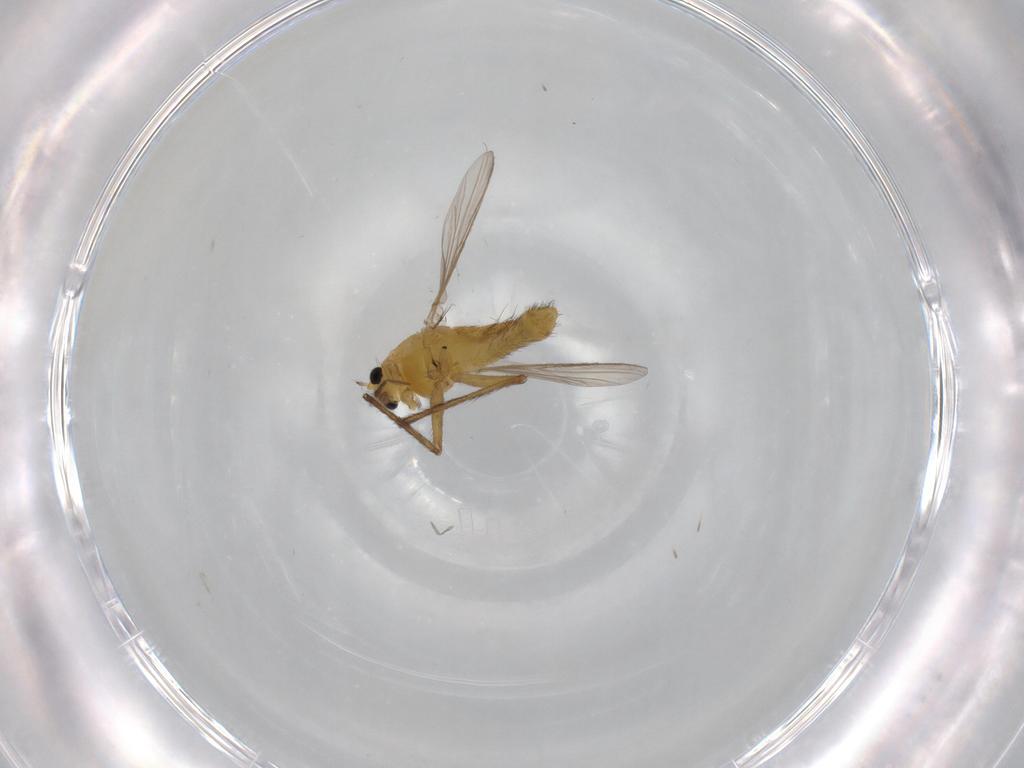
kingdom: Animalia
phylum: Arthropoda
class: Insecta
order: Diptera
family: Chironomidae
